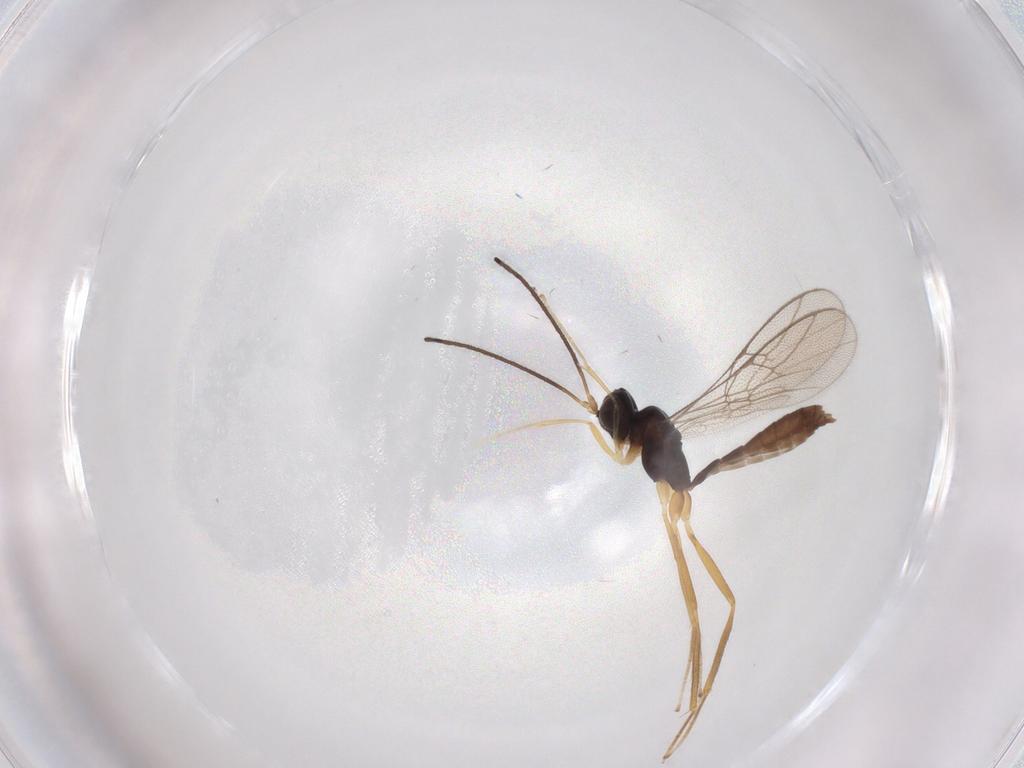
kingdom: Animalia
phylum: Arthropoda
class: Insecta
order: Hymenoptera
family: Ichneumonidae
